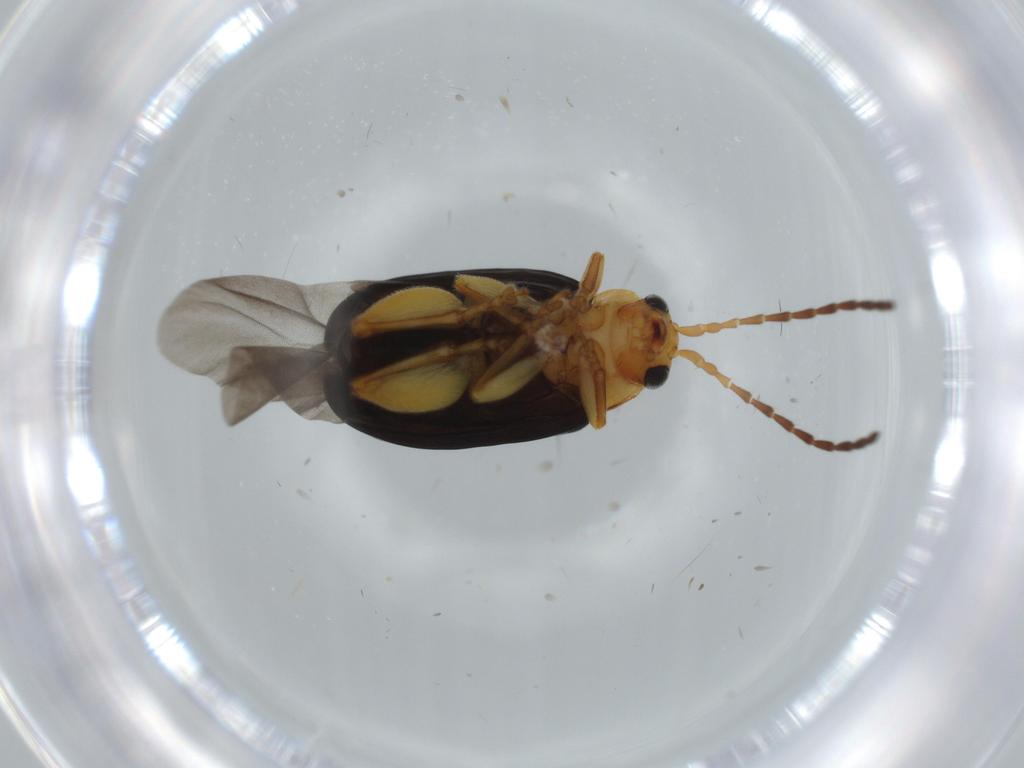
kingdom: Animalia
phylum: Arthropoda
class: Insecta
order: Coleoptera
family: Chrysomelidae
